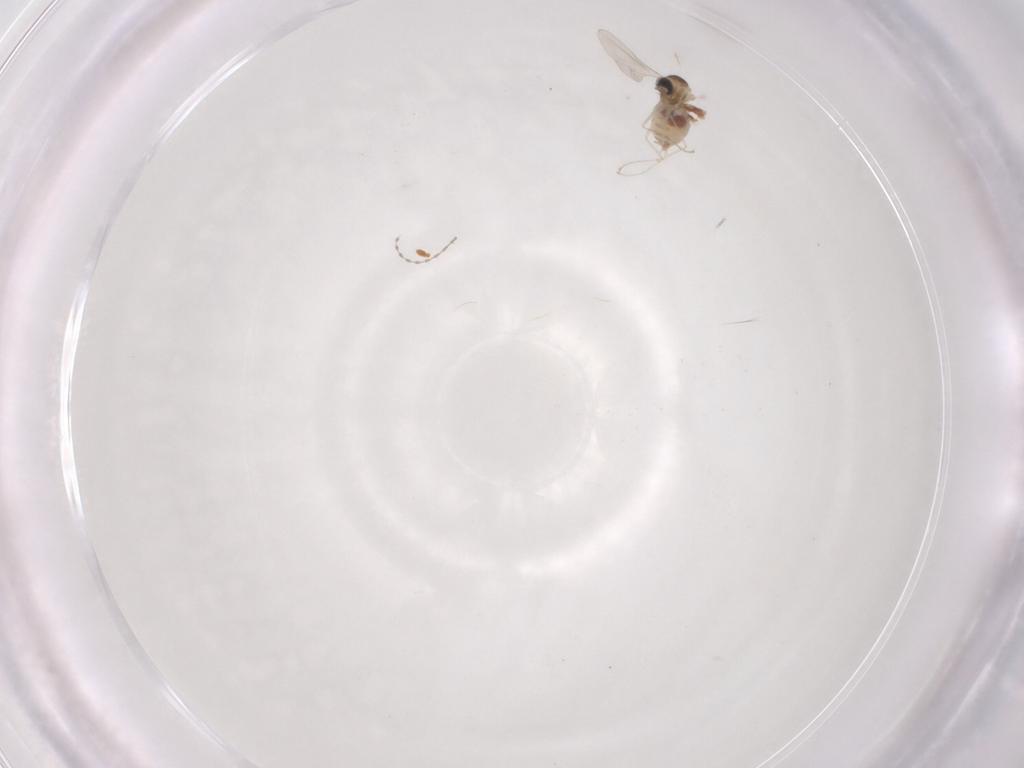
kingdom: Animalia
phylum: Arthropoda
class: Insecta
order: Diptera
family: Cecidomyiidae
